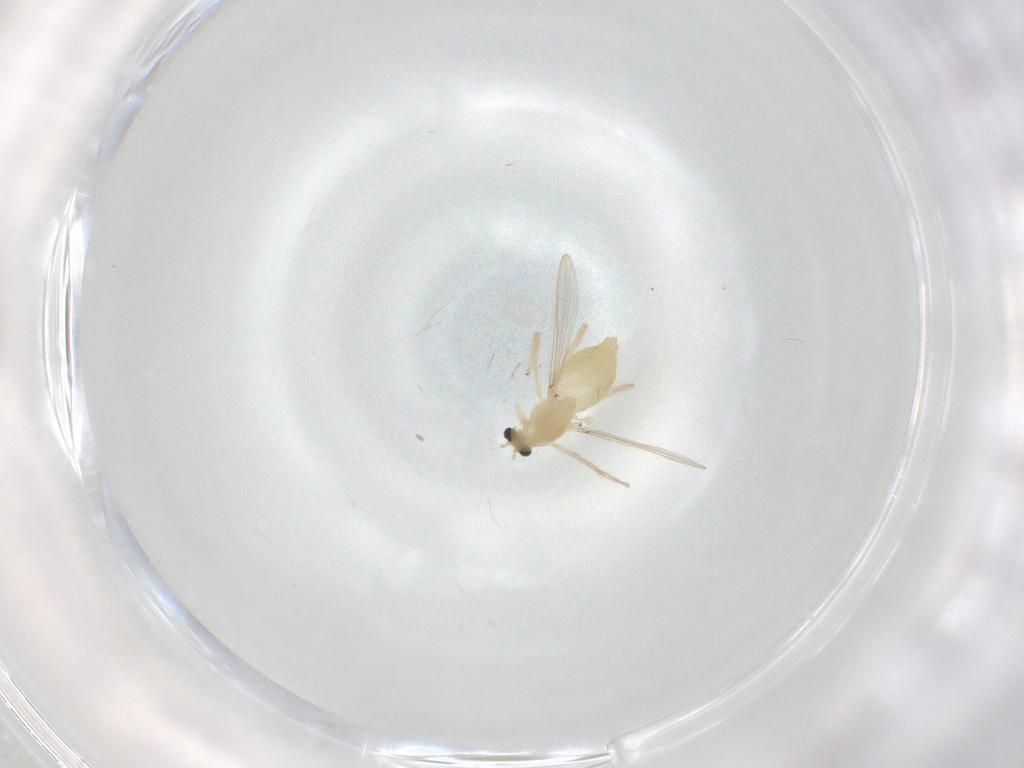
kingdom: Animalia
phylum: Arthropoda
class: Insecta
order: Diptera
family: Chironomidae
